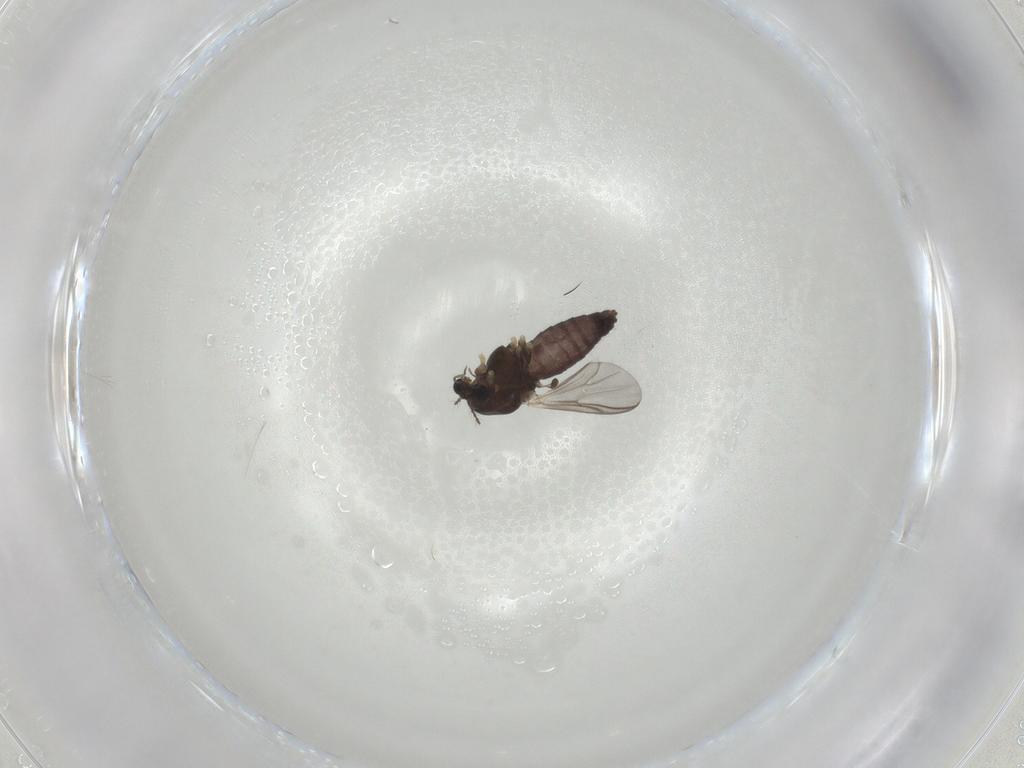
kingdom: Animalia
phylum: Arthropoda
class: Insecta
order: Diptera
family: Chironomidae
